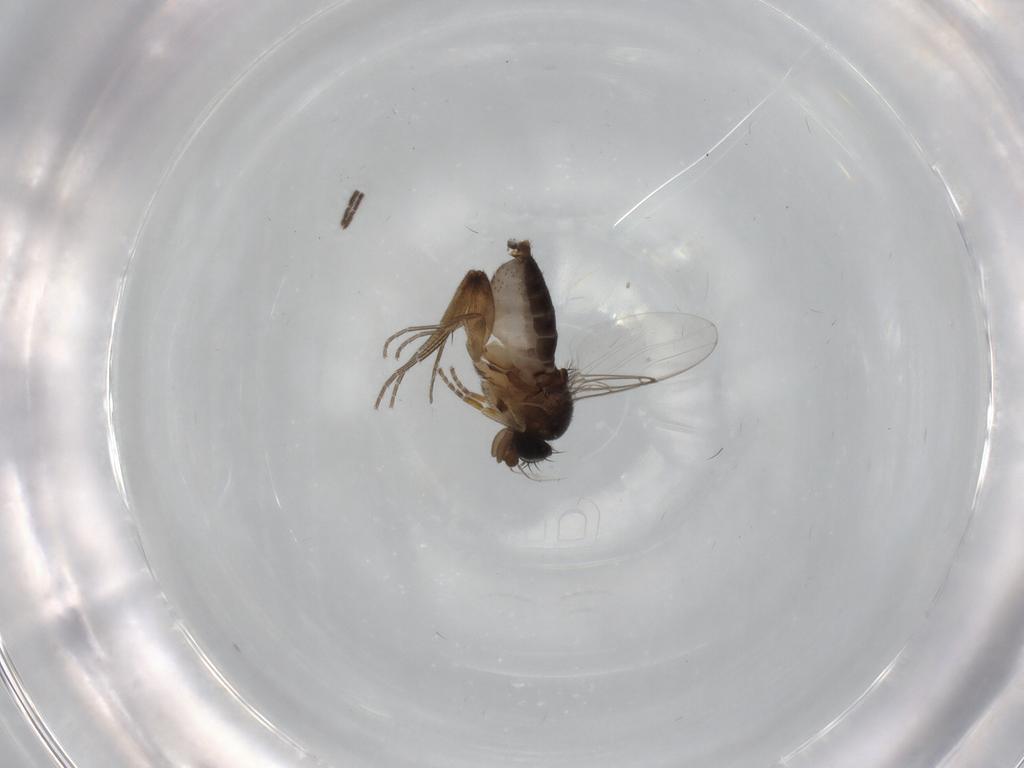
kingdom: Animalia
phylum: Arthropoda
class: Insecta
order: Diptera
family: Phoridae
